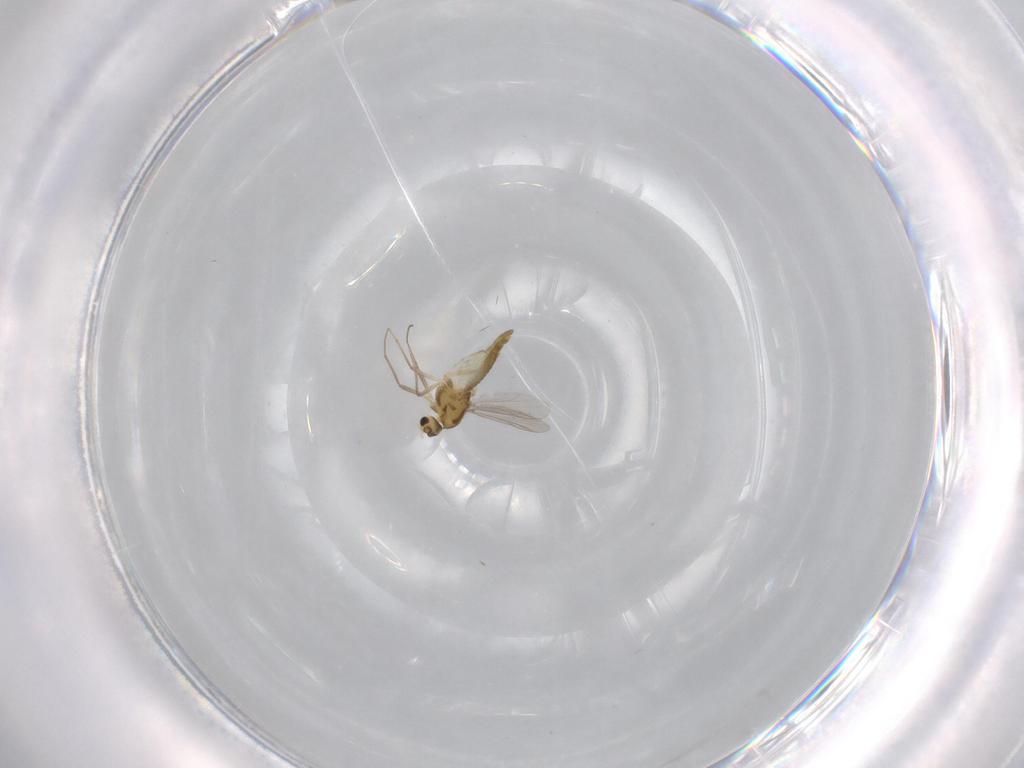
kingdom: Animalia
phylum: Arthropoda
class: Insecta
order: Diptera
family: Chironomidae
